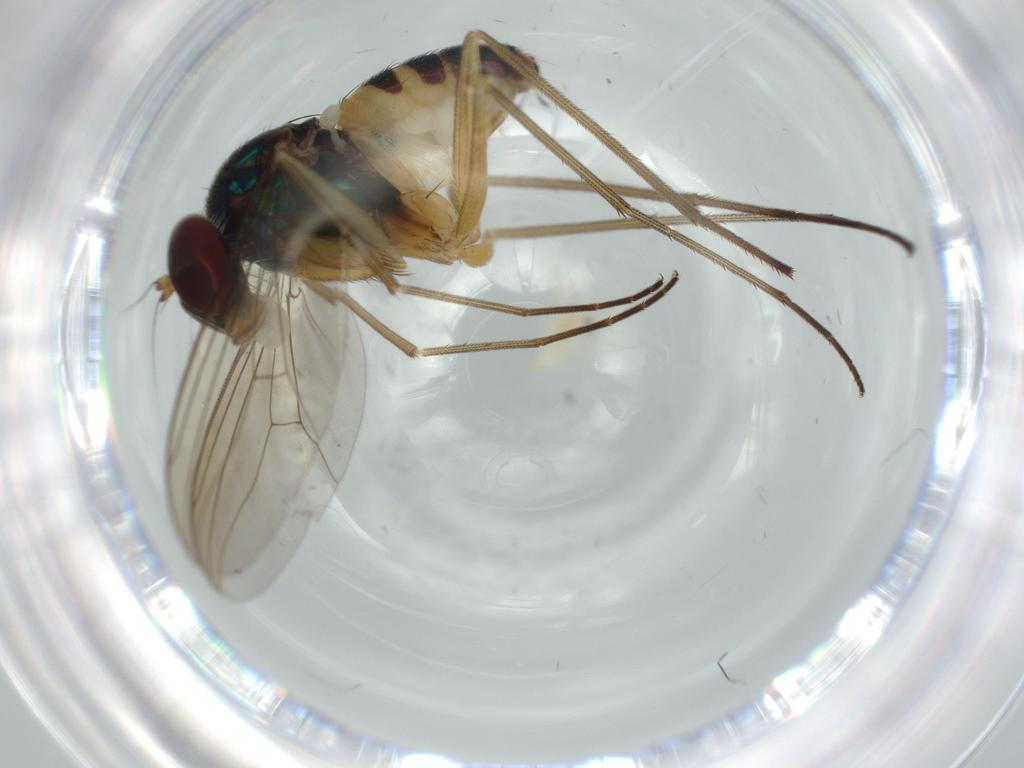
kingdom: Animalia
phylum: Arthropoda
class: Insecta
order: Diptera
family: Dolichopodidae
